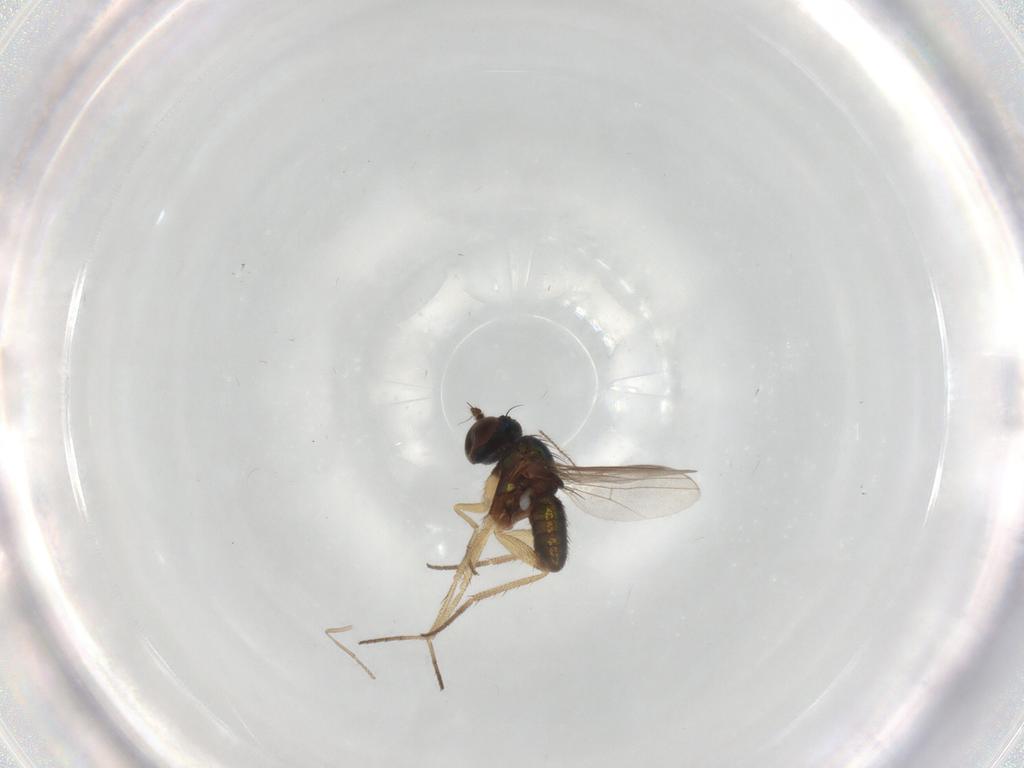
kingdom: Animalia
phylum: Arthropoda
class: Insecta
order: Diptera
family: Dolichopodidae
